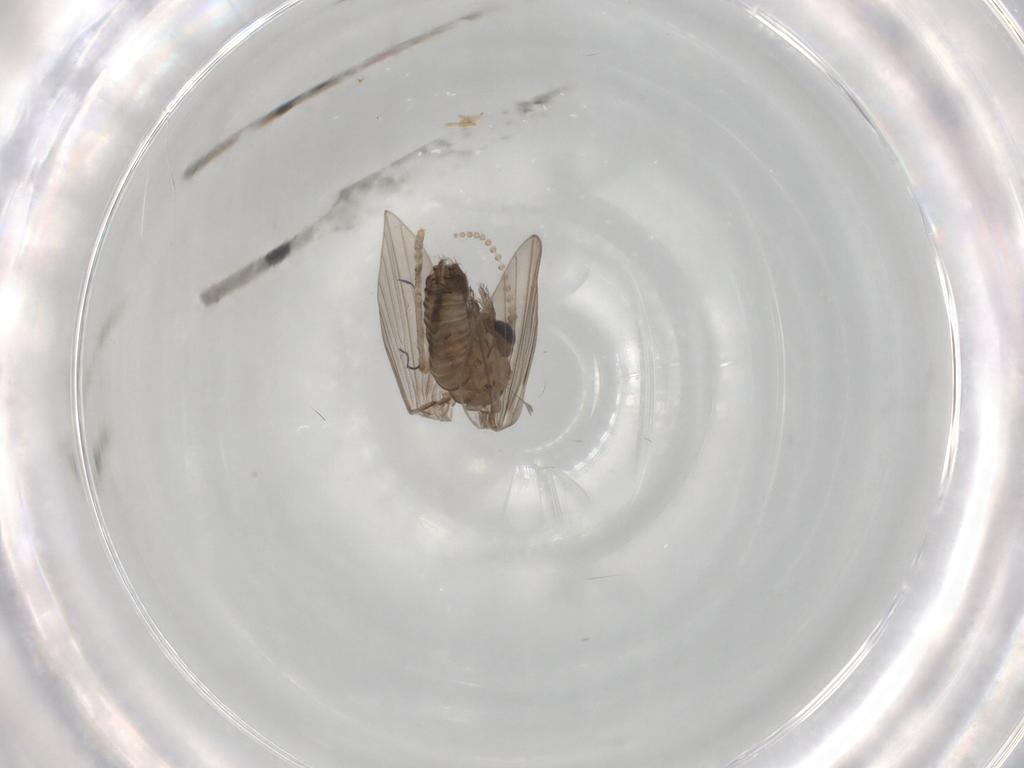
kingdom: Animalia
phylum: Arthropoda
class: Insecta
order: Diptera
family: Psychodidae
